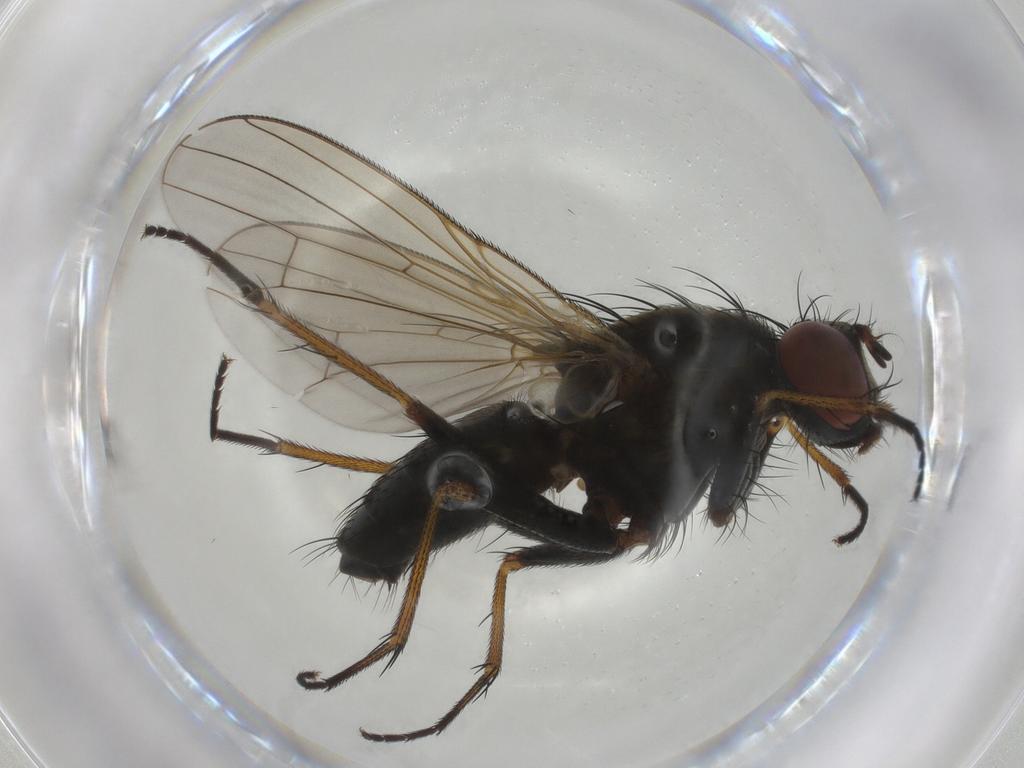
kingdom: Animalia
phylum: Arthropoda
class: Insecta
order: Diptera
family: Muscidae
